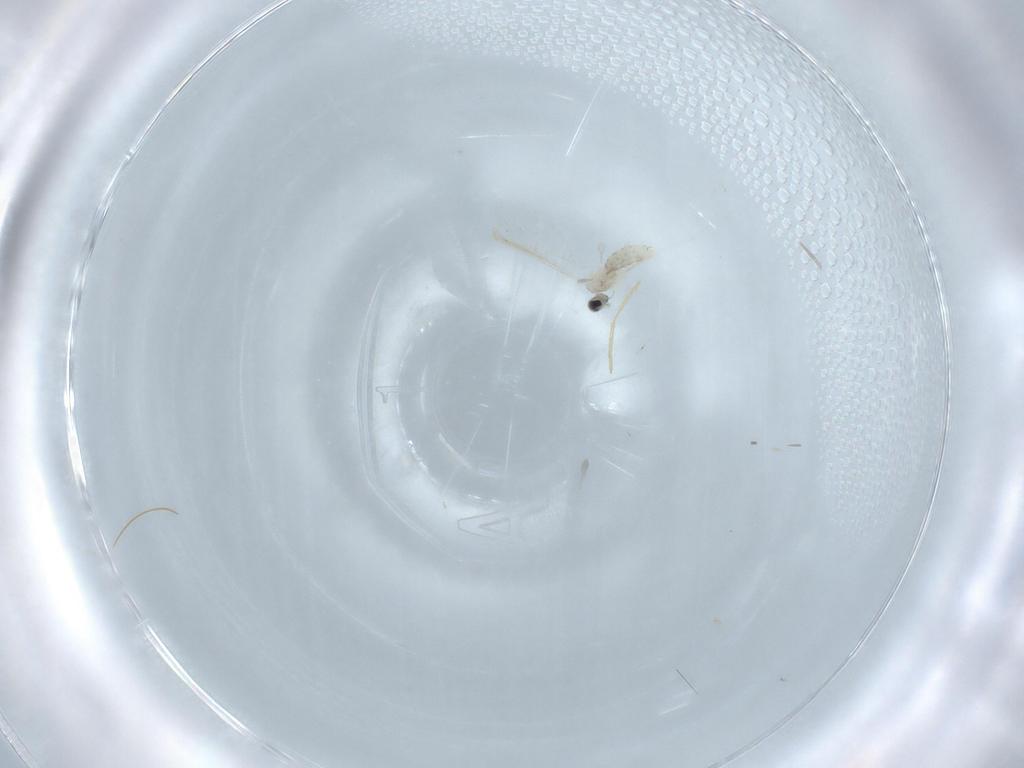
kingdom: Animalia
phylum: Arthropoda
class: Insecta
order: Diptera
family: Cecidomyiidae
